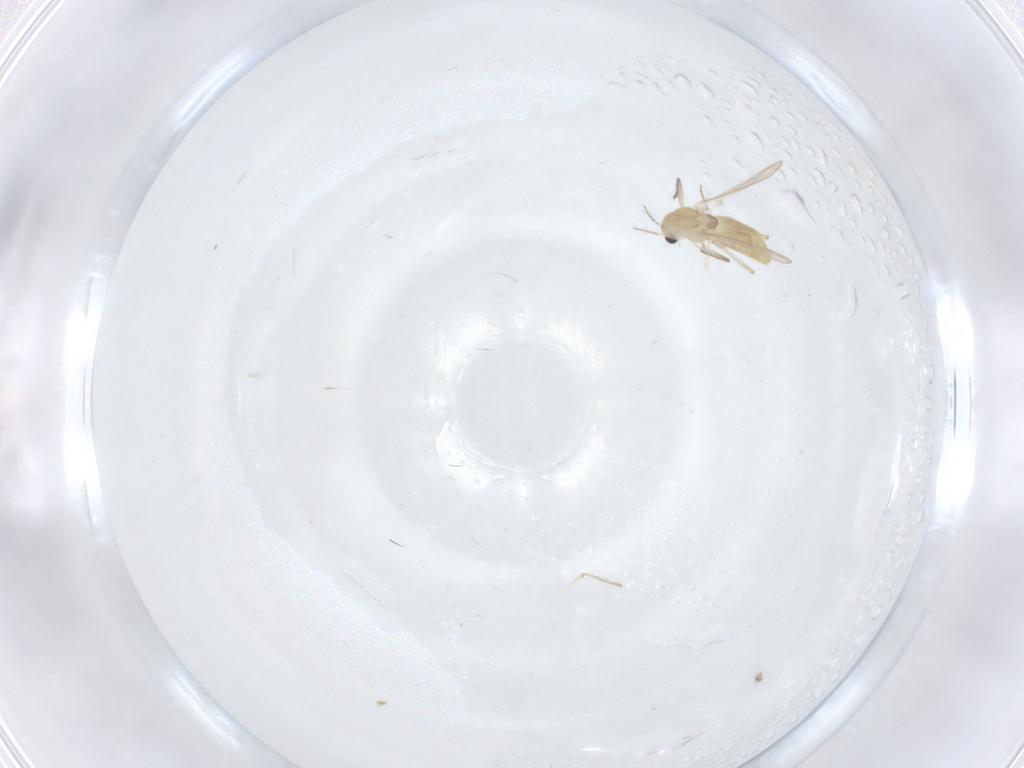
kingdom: Animalia
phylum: Arthropoda
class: Insecta
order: Diptera
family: Chironomidae
